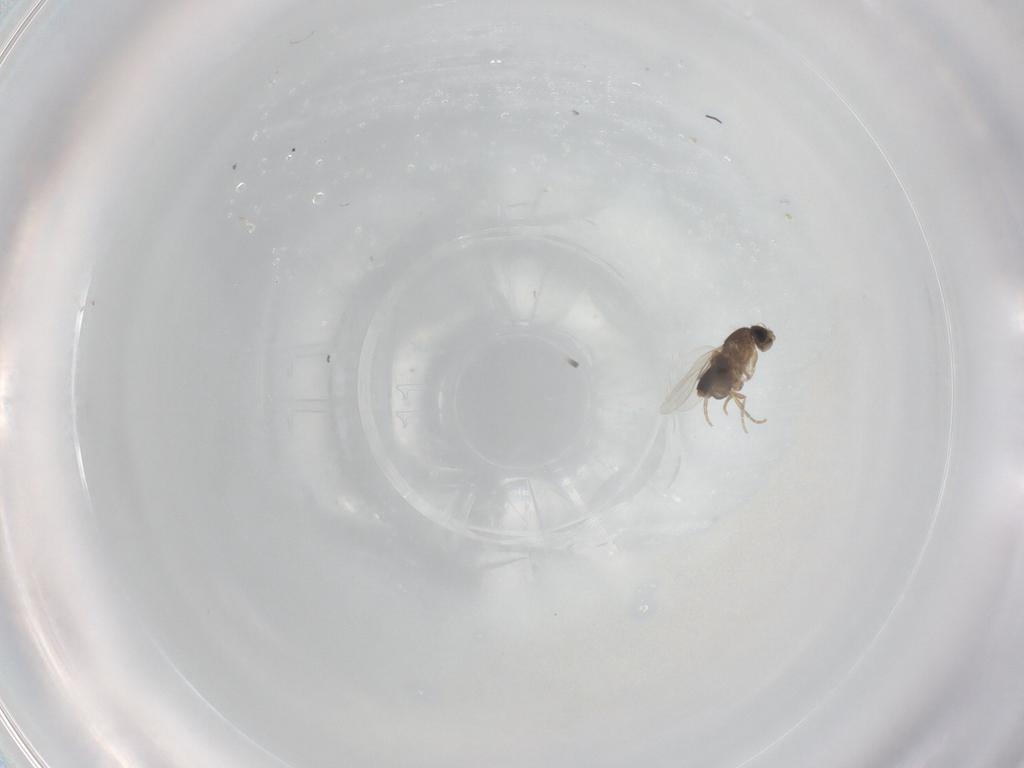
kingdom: Animalia
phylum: Arthropoda
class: Insecta
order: Diptera
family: Phoridae
